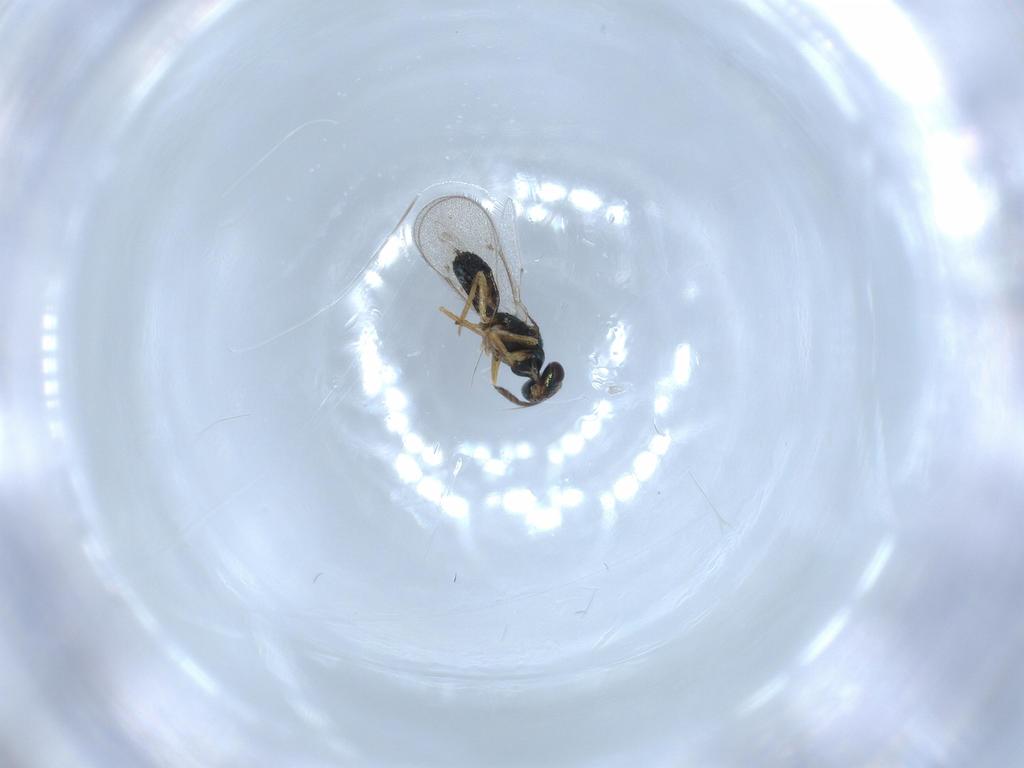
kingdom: Animalia
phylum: Arthropoda
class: Insecta
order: Hymenoptera
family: Eulophidae
